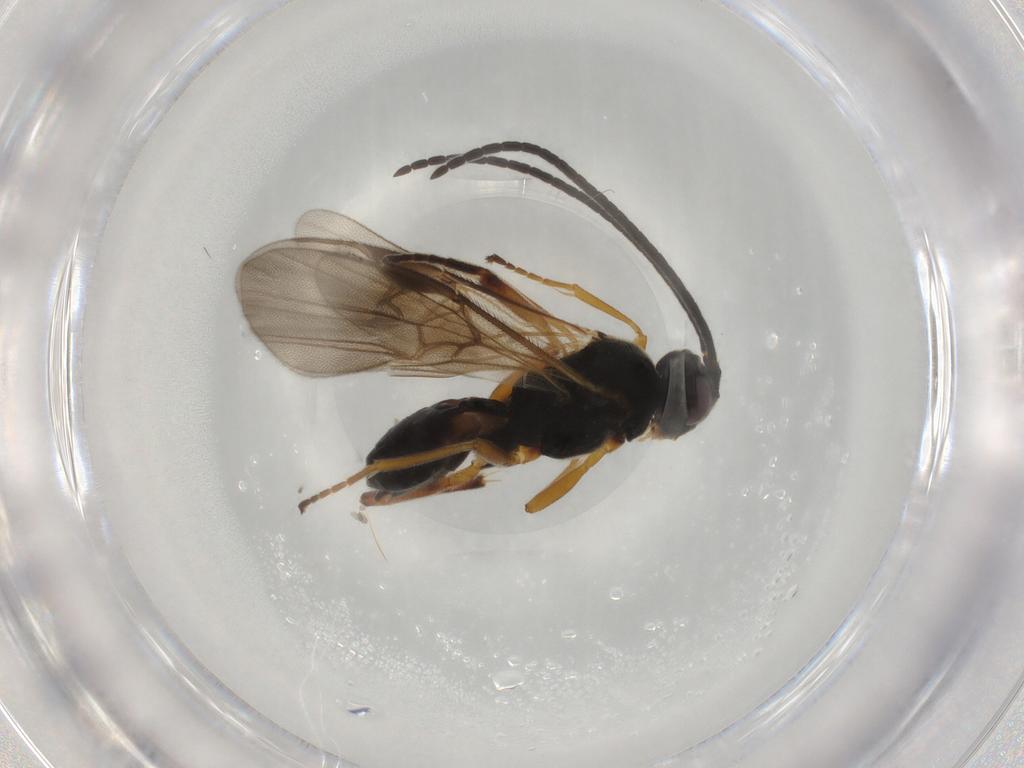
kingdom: Animalia
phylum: Arthropoda
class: Insecta
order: Hymenoptera
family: Braconidae
